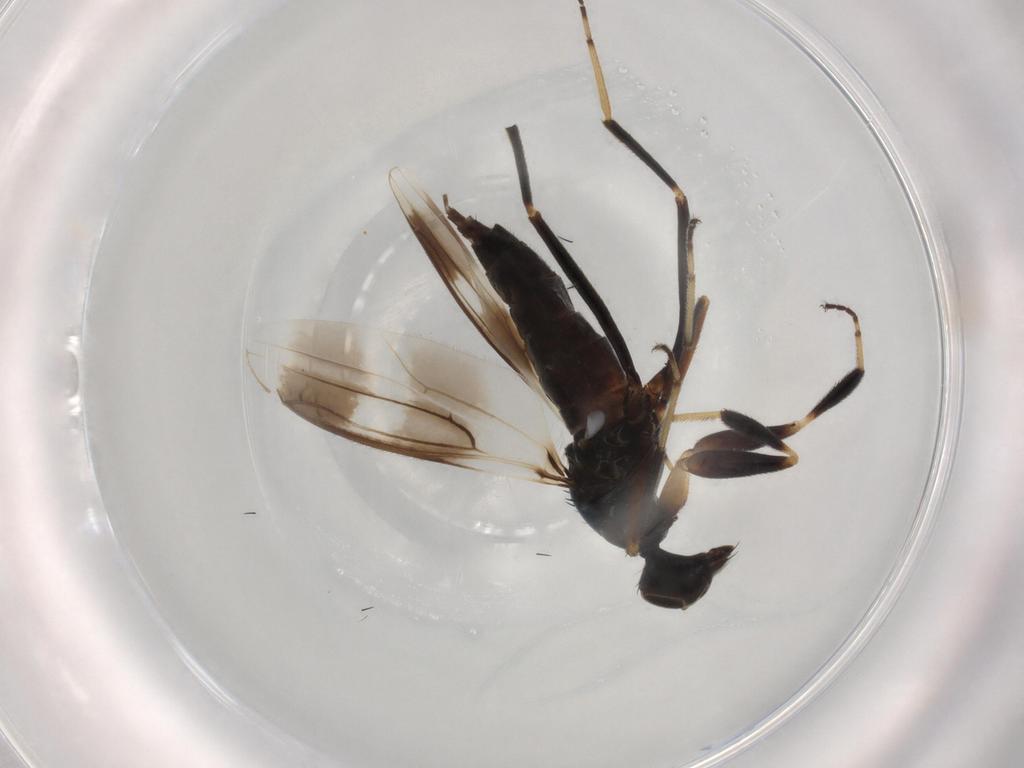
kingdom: Animalia
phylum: Arthropoda
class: Insecta
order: Diptera
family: Hybotidae
